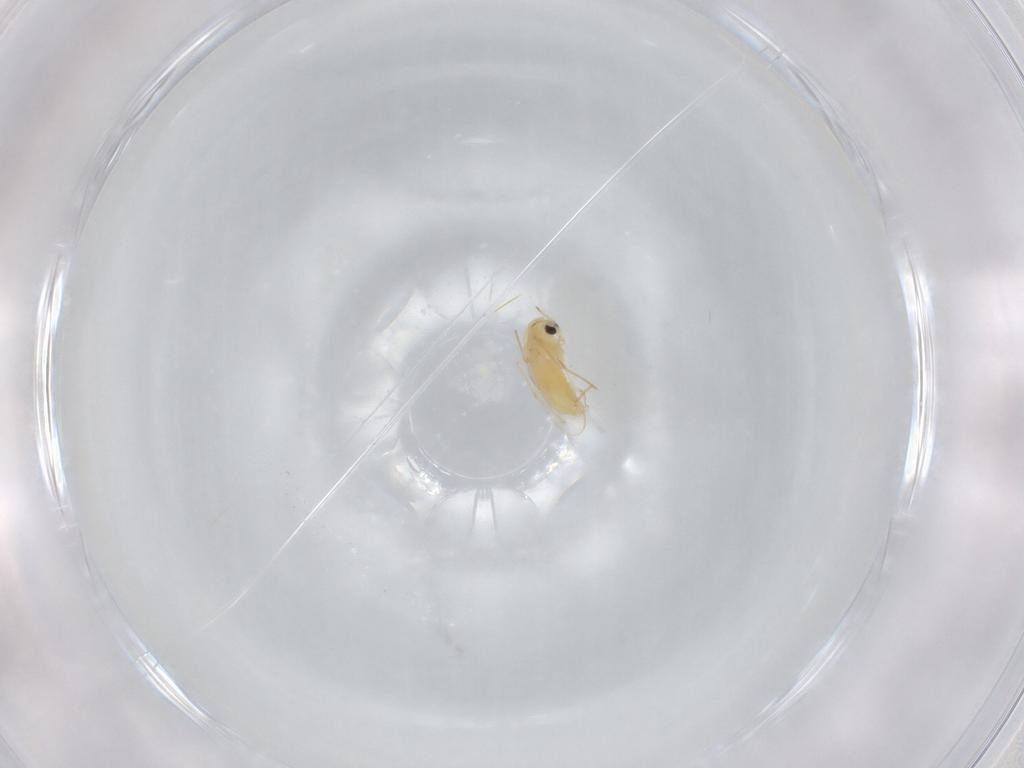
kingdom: Animalia
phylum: Arthropoda
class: Insecta
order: Diptera
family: Chironomidae
